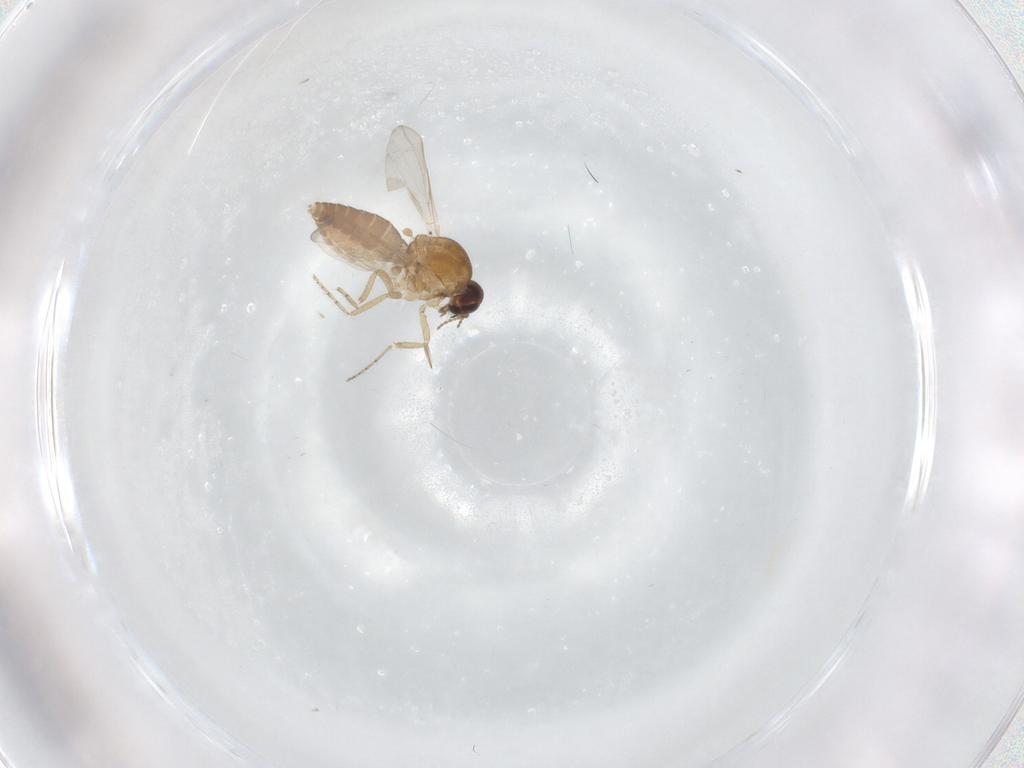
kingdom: Animalia
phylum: Arthropoda
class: Insecta
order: Diptera
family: Cecidomyiidae
